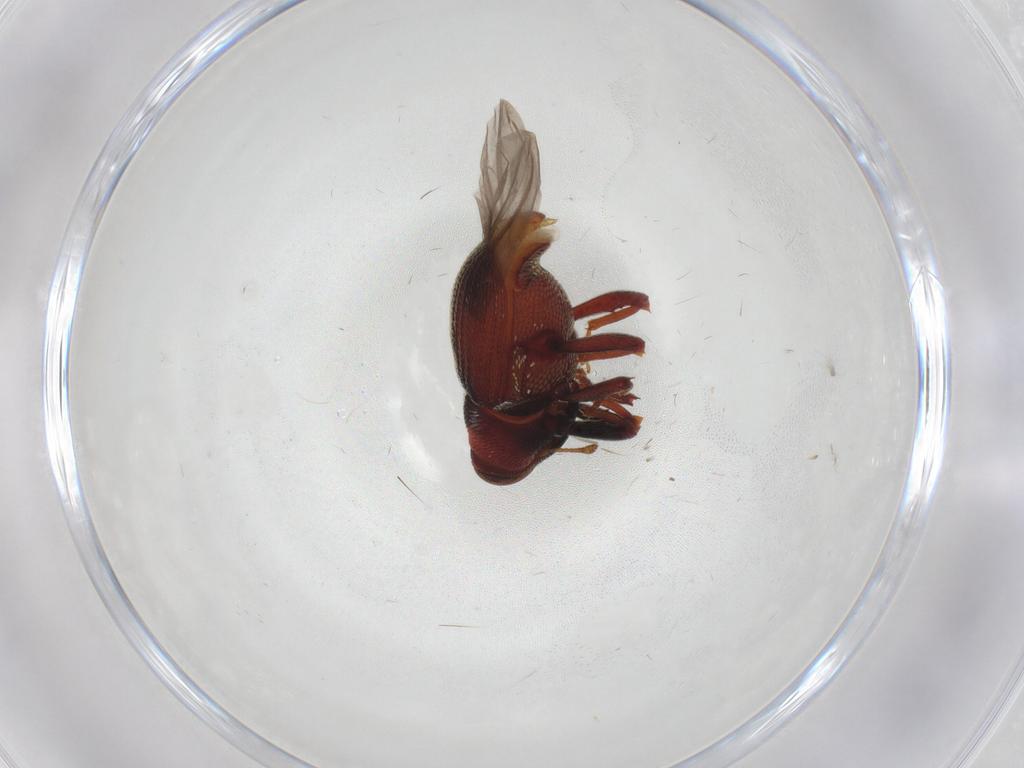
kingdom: Animalia
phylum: Arthropoda
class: Insecta
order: Coleoptera
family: Curculionidae
